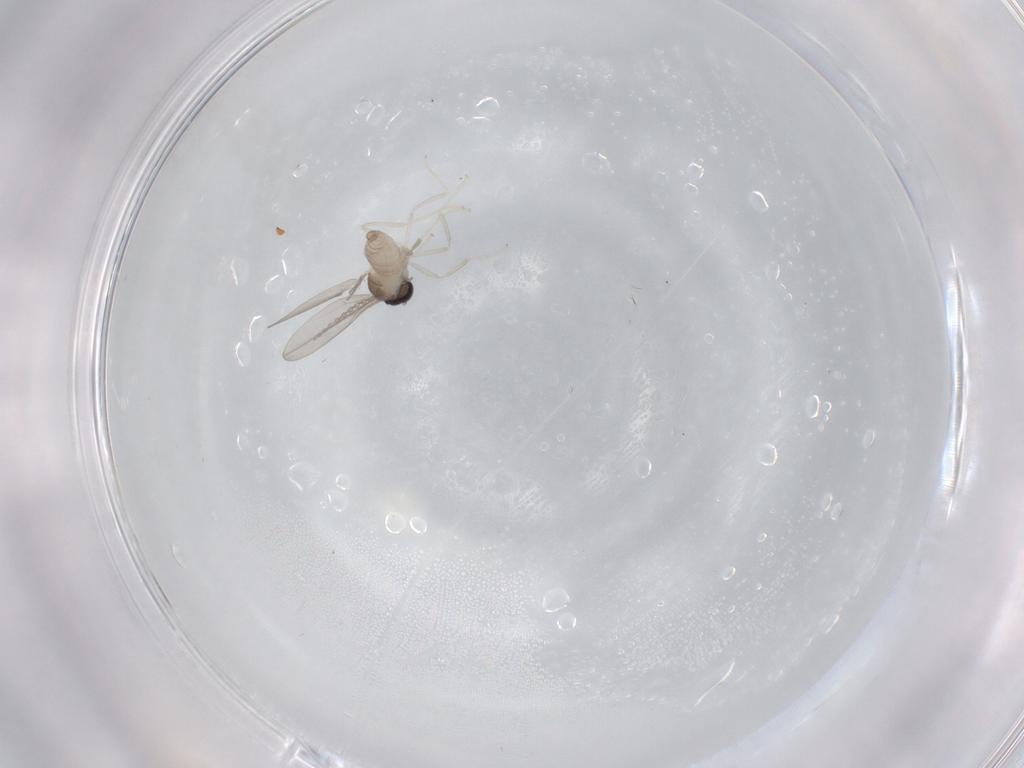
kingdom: Animalia
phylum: Arthropoda
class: Insecta
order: Diptera
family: Cecidomyiidae
